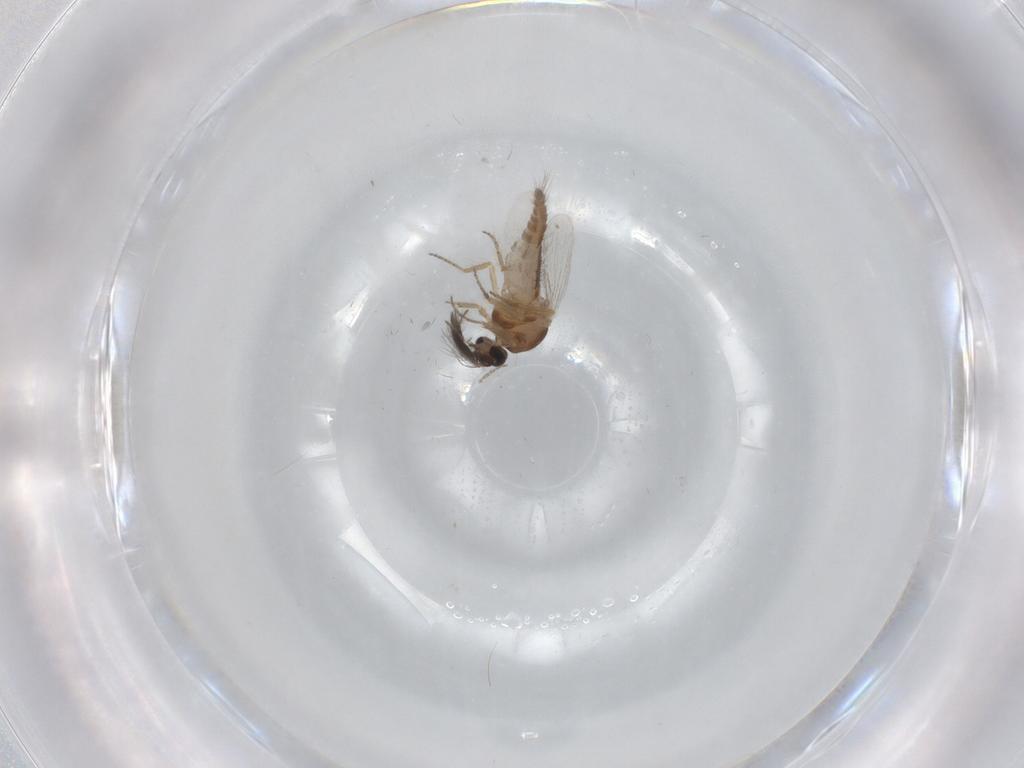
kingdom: Animalia
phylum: Arthropoda
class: Insecta
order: Diptera
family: Ceratopogonidae
